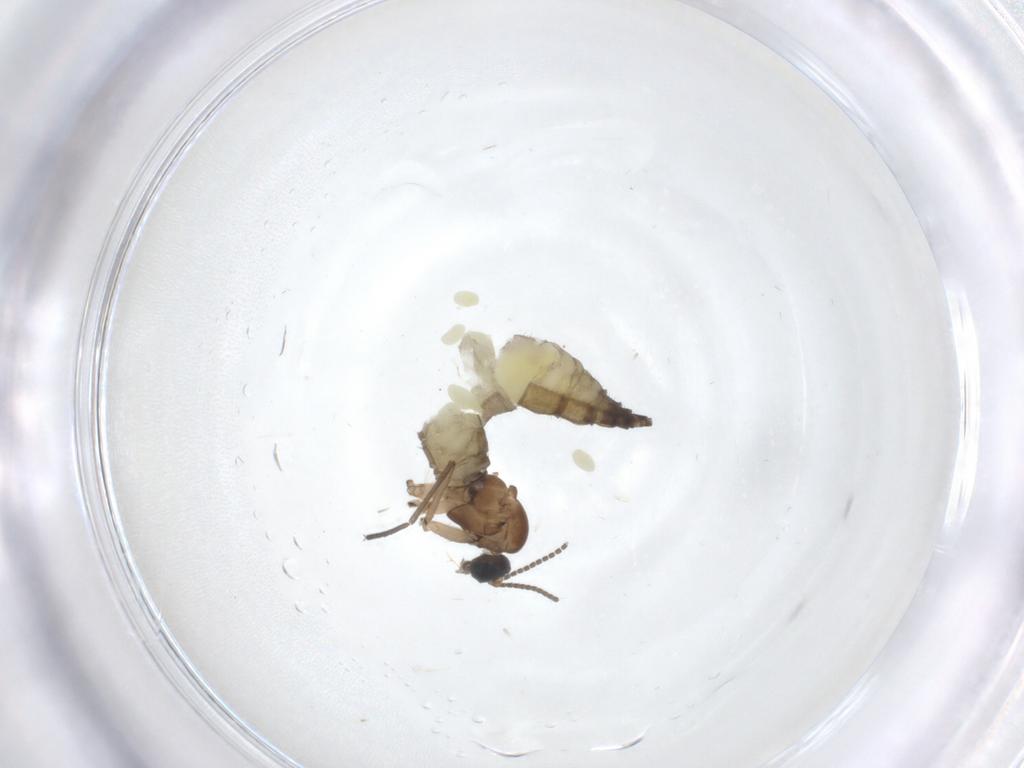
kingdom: Animalia
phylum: Arthropoda
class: Insecta
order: Diptera
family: Sciaridae
